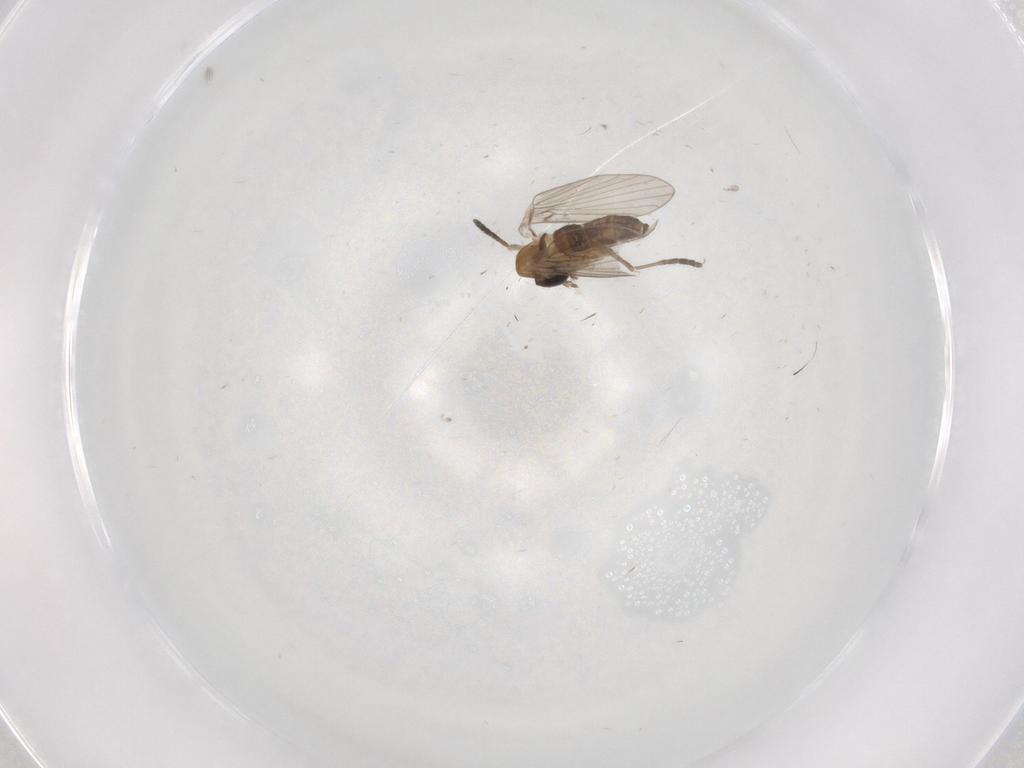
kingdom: Animalia
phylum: Arthropoda
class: Insecta
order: Diptera
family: Psychodidae
